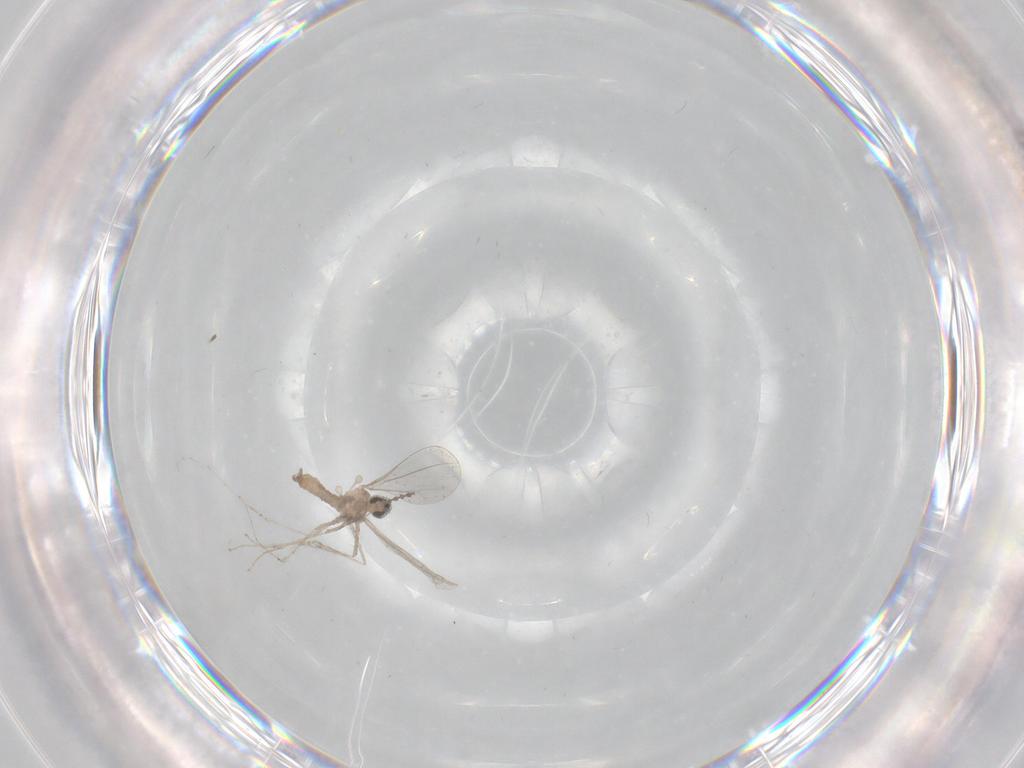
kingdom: Animalia
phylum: Arthropoda
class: Insecta
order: Diptera
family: Cecidomyiidae
